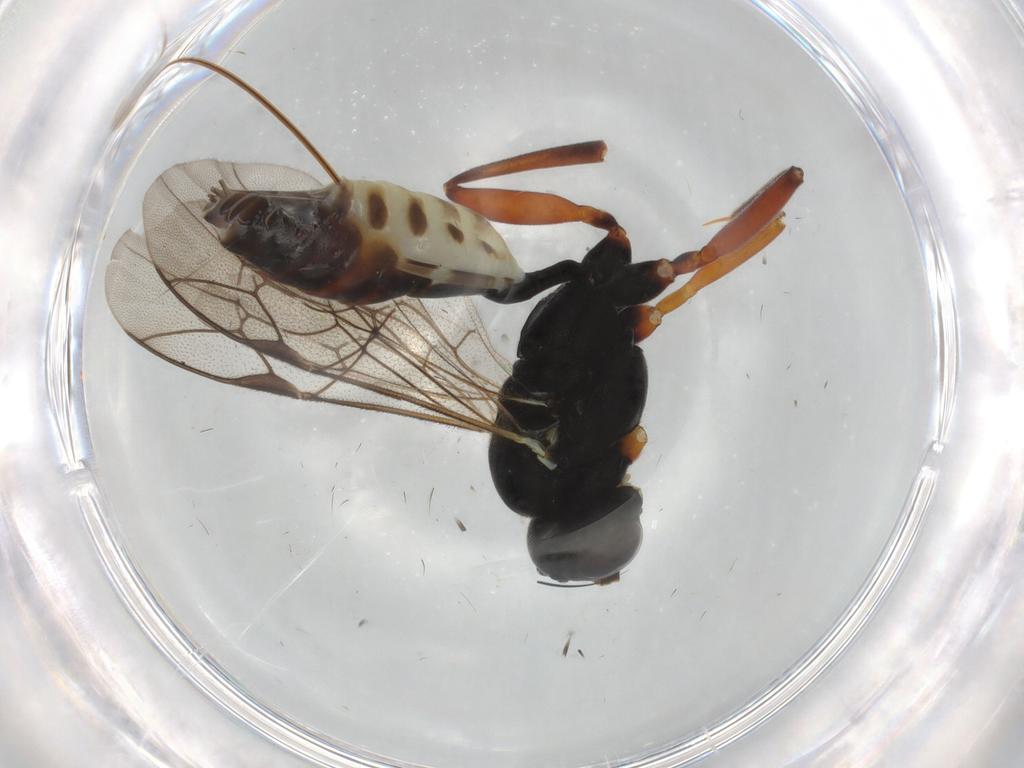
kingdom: Animalia
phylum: Arthropoda
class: Insecta
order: Hymenoptera
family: Ichneumonidae
